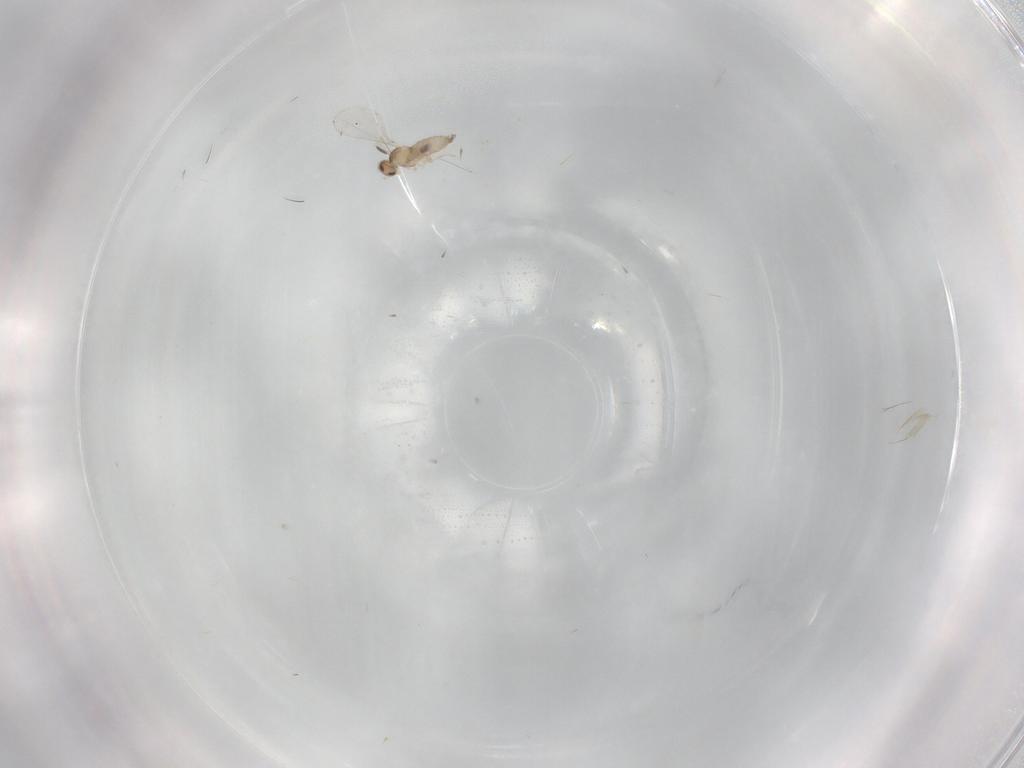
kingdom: Animalia
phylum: Arthropoda
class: Insecta
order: Diptera
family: Cecidomyiidae
